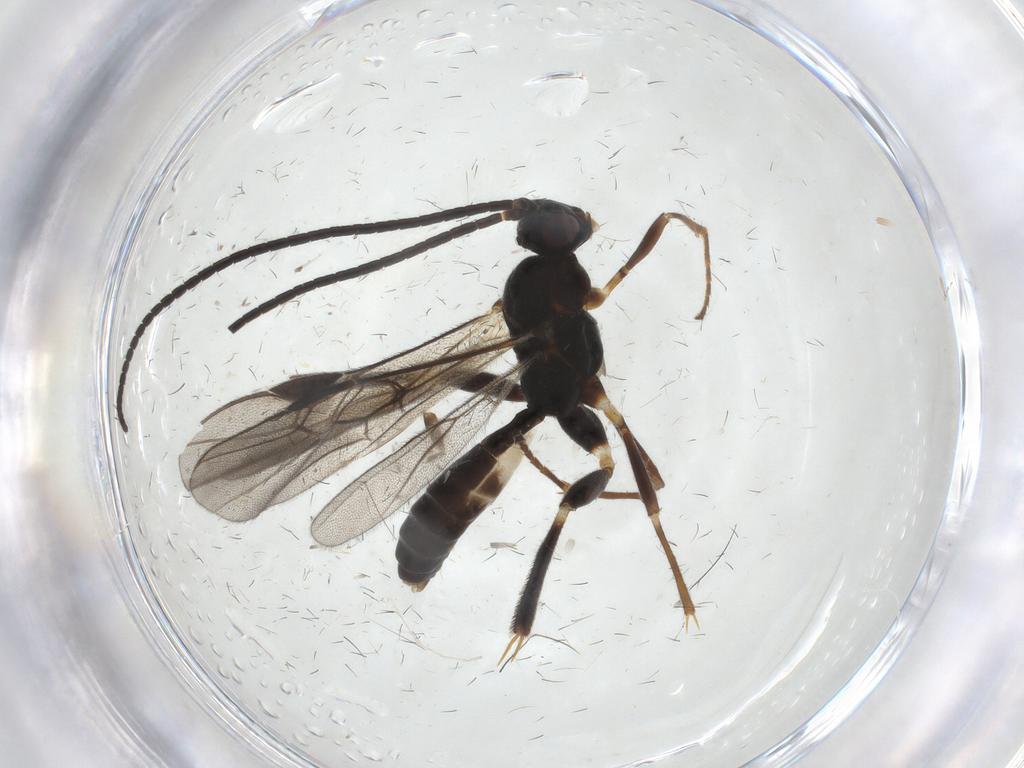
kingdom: Animalia
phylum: Arthropoda
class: Insecta
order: Hymenoptera
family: Braconidae
